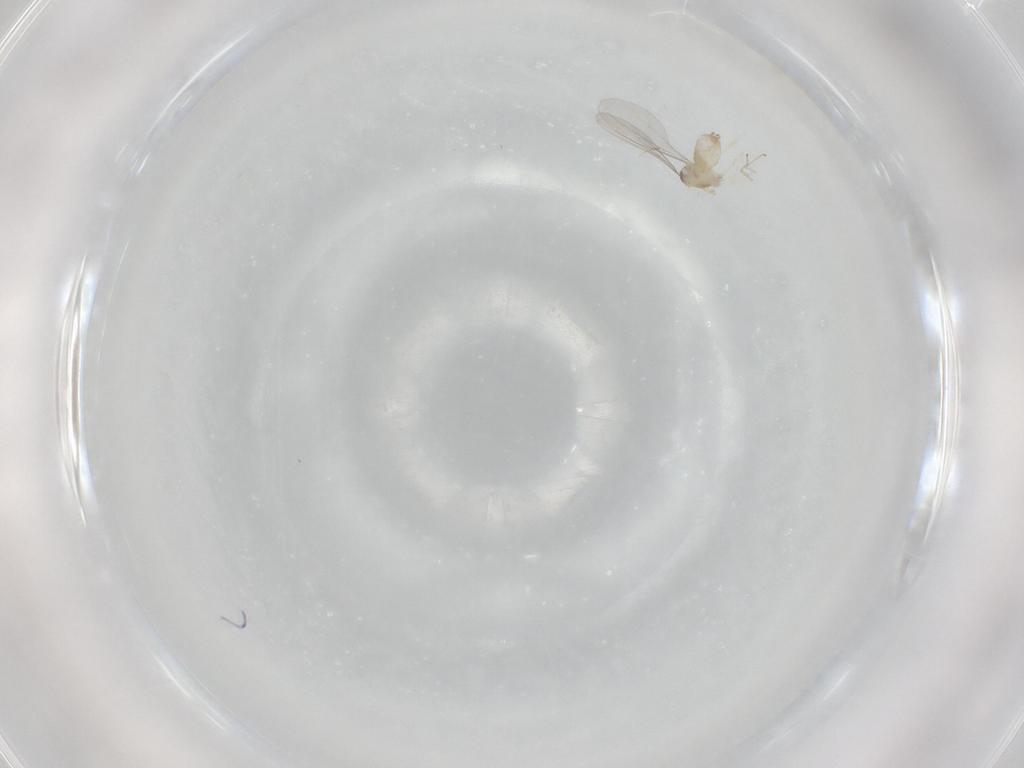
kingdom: Animalia
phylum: Arthropoda
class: Insecta
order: Diptera
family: Cecidomyiidae
